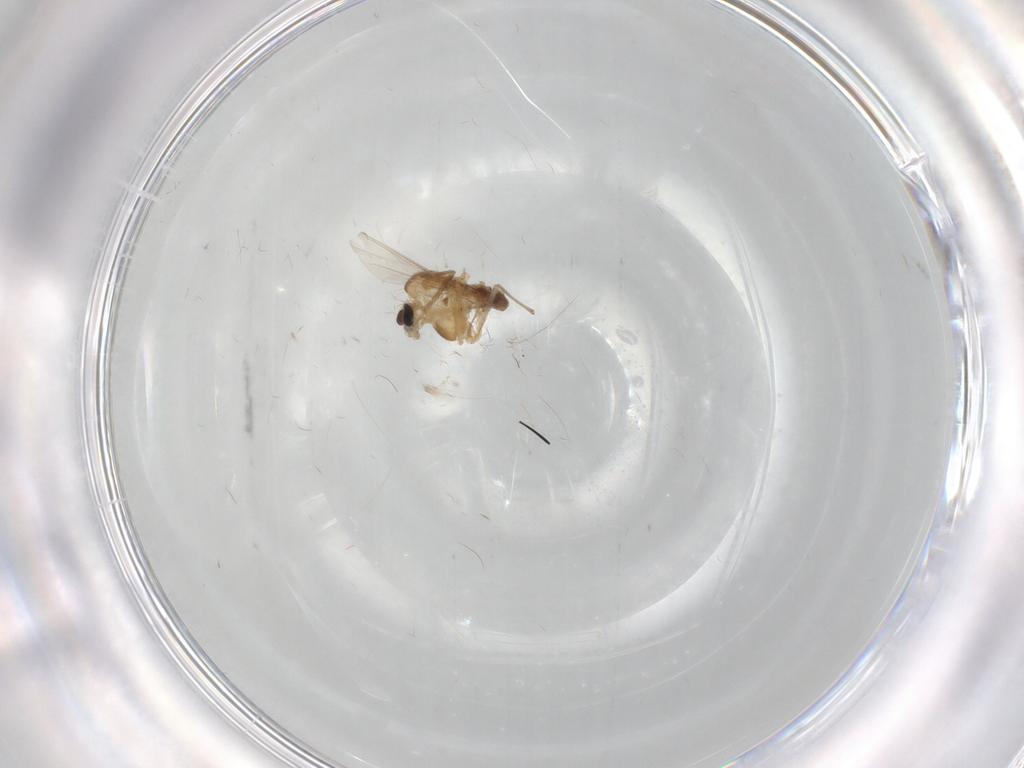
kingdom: Animalia
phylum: Arthropoda
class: Insecta
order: Diptera
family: Chironomidae
